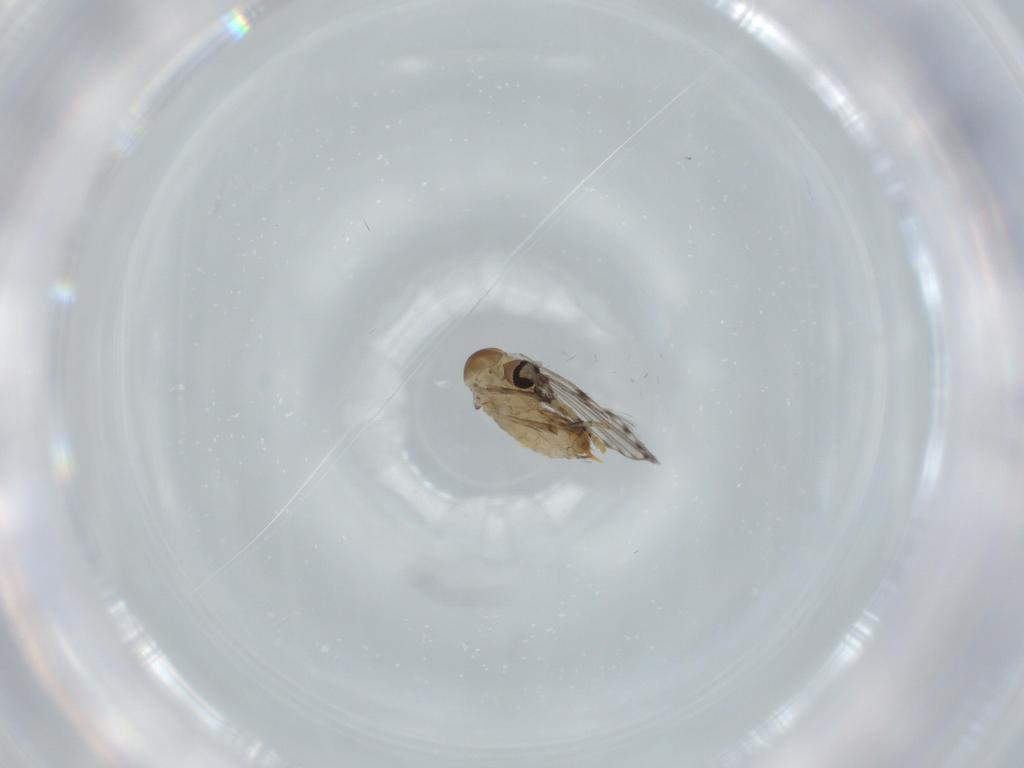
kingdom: Animalia
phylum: Arthropoda
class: Insecta
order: Diptera
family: Psychodidae
